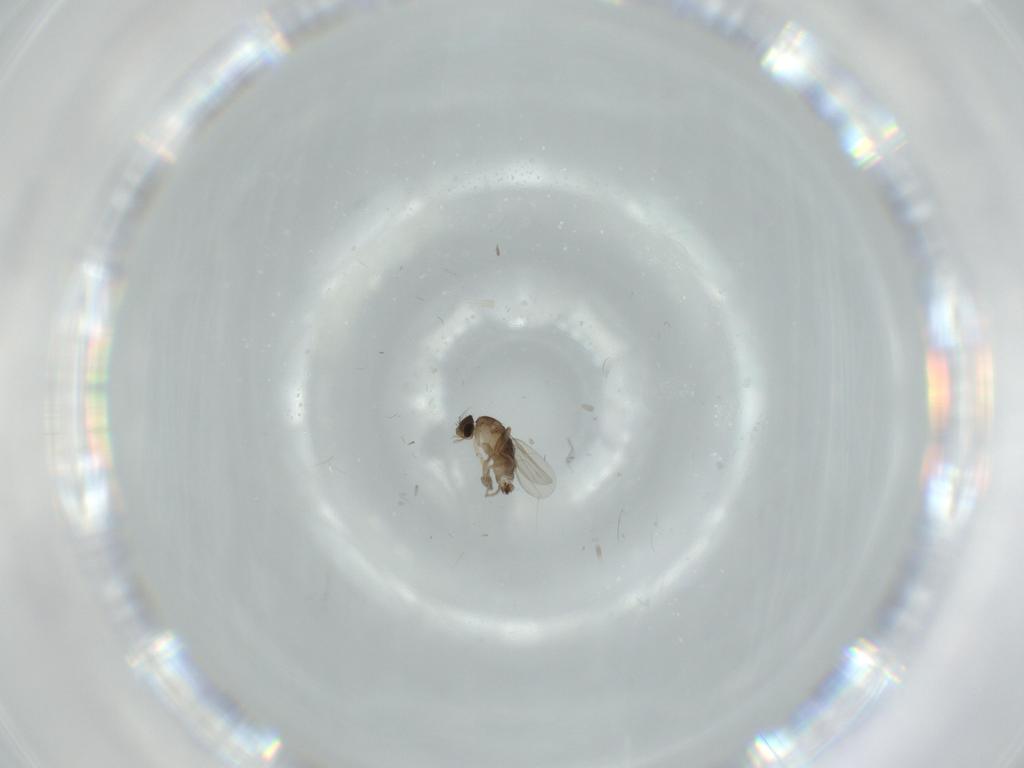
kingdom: Animalia
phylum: Arthropoda
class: Insecta
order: Diptera
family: Phoridae
